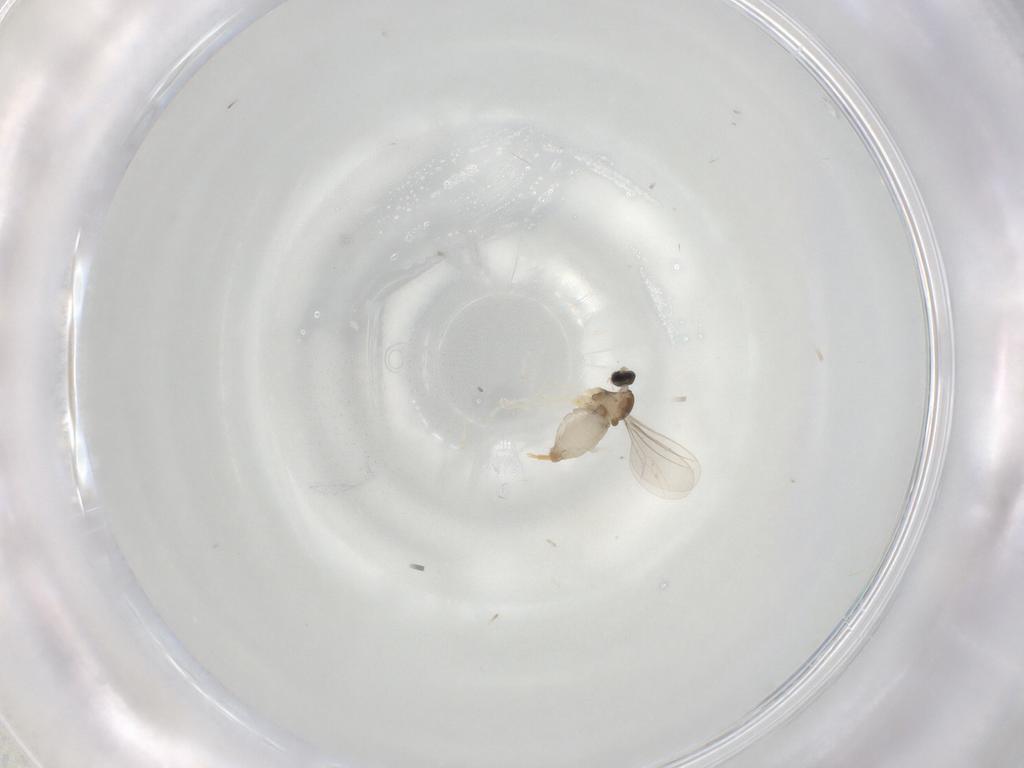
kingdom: Animalia
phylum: Arthropoda
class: Insecta
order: Diptera
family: Cecidomyiidae
